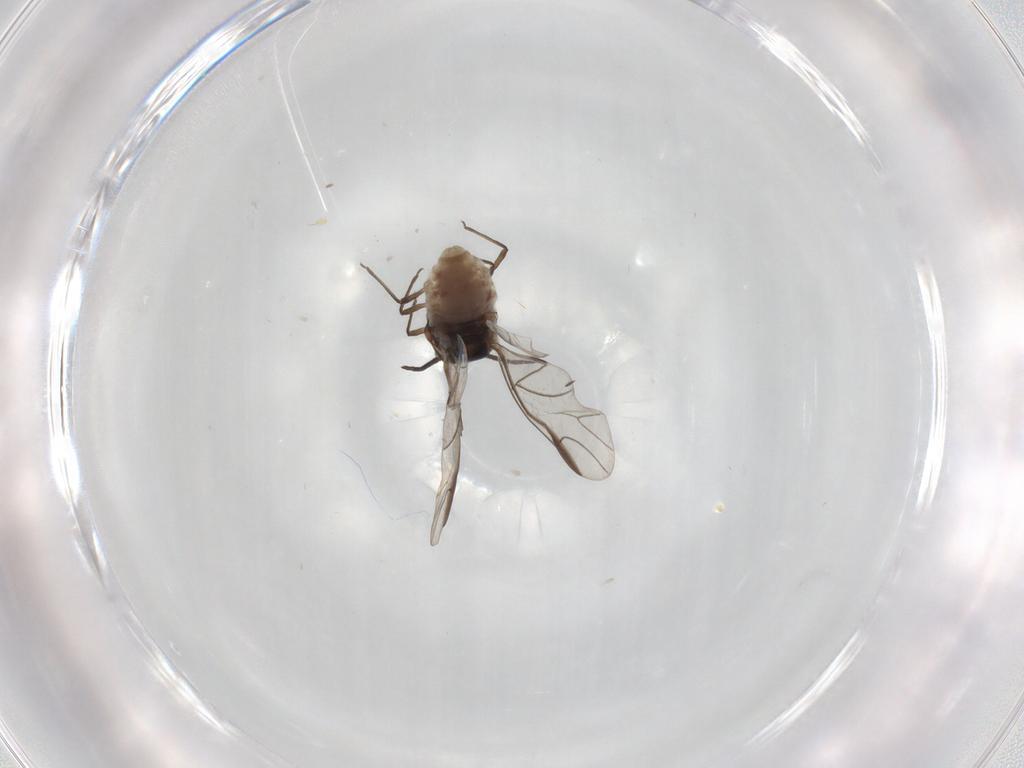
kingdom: Animalia
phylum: Arthropoda
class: Insecta
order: Hemiptera
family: Aphididae
